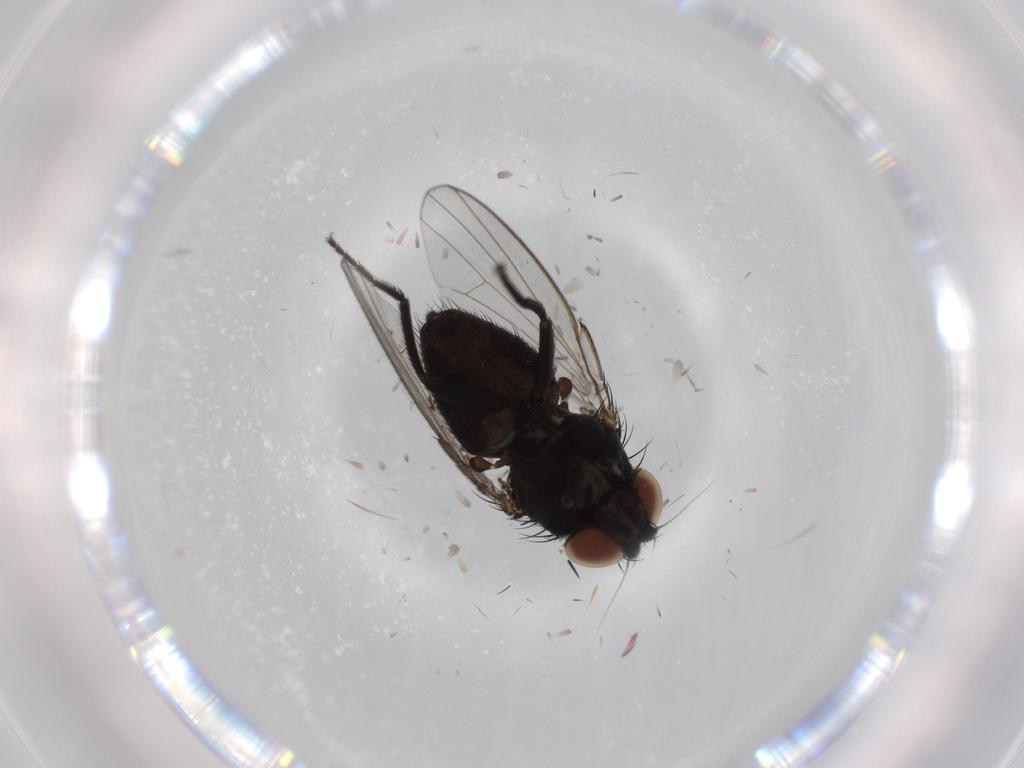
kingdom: Animalia
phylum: Arthropoda
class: Insecta
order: Diptera
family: Milichiidae
